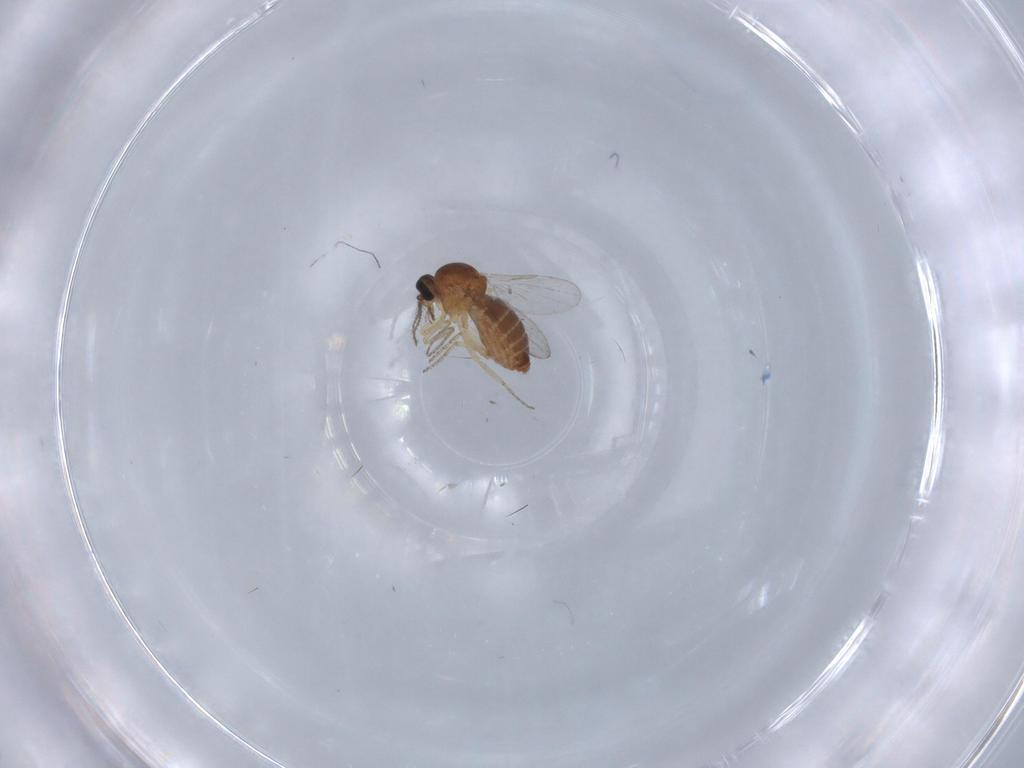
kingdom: Animalia
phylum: Arthropoda
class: Insecta
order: Diptera
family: Ceratopogonidae
